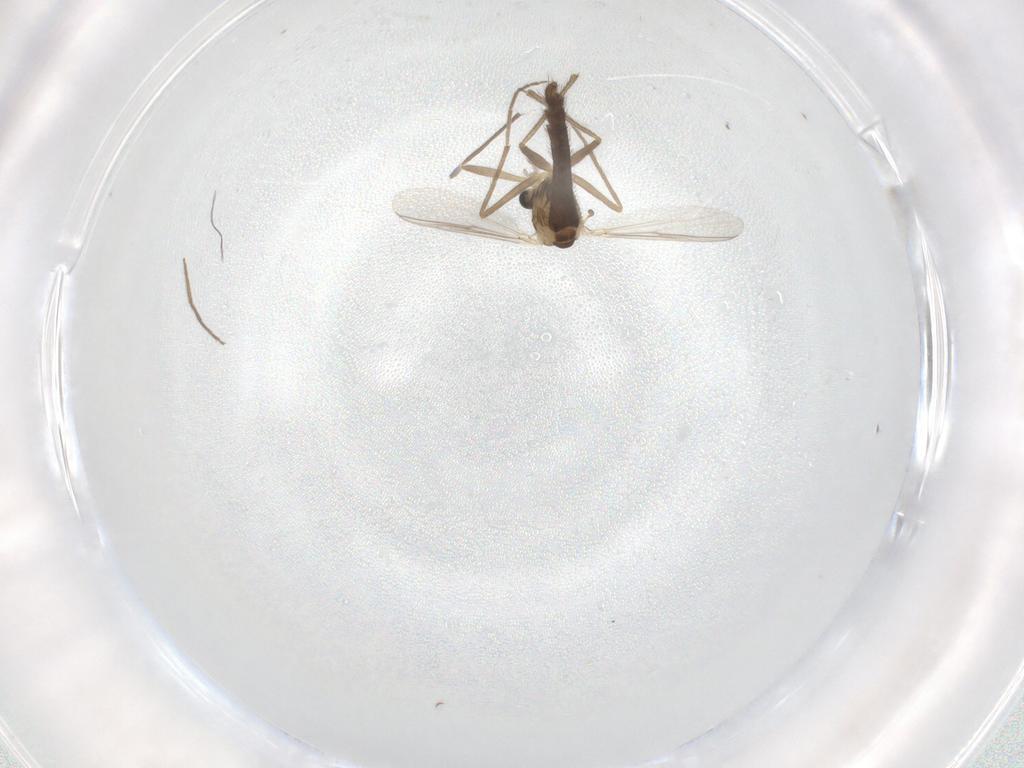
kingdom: Animalia
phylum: Arthropoda
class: Insecta
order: Diptera
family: Chironomidae
